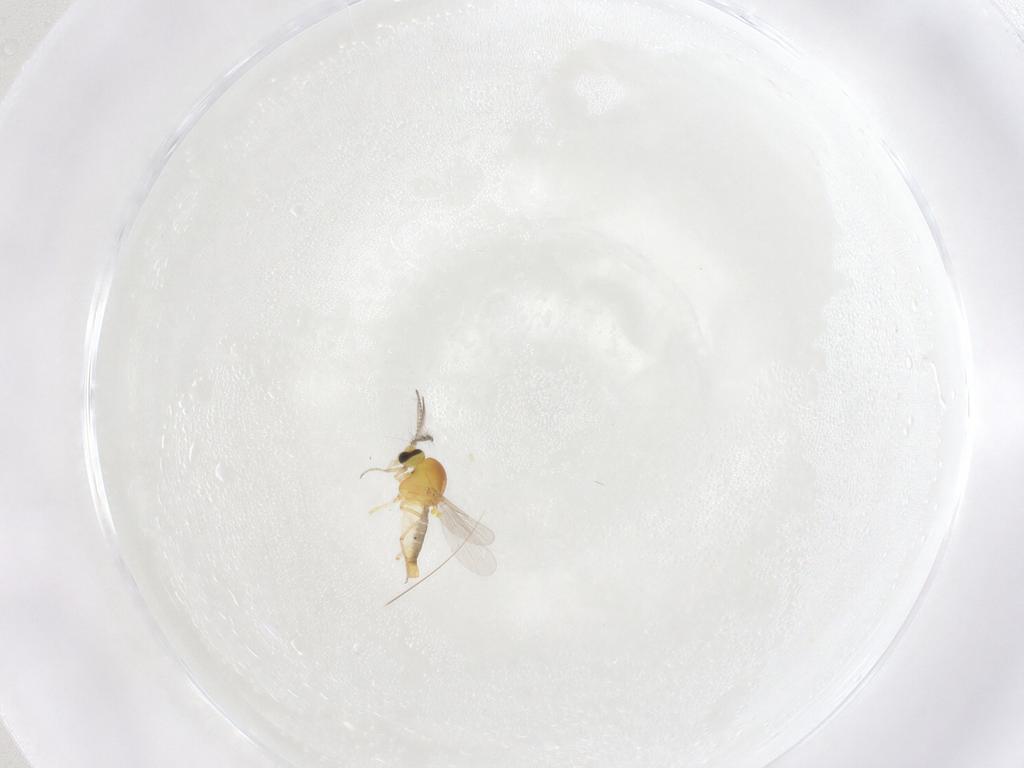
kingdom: Animalia
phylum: Arthropoda
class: Insecta
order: Diptera
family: Ceratopogonidae
